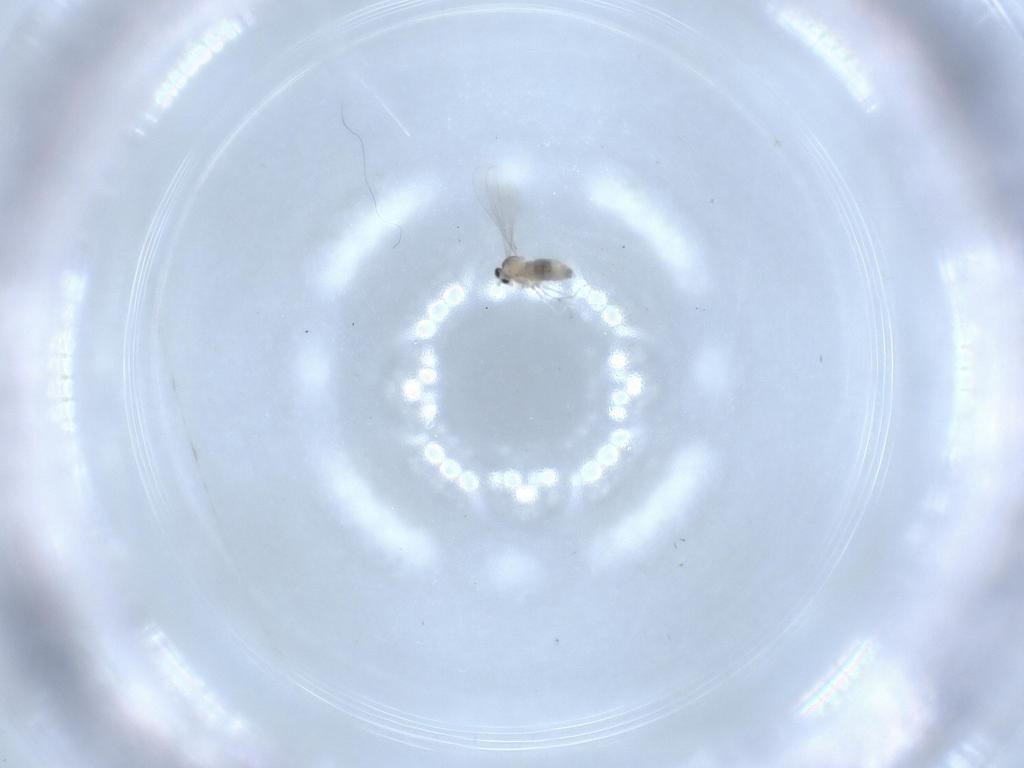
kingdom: Animalia
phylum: Arthropoda
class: Insecta
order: Diptera
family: Cecidomyiidae
